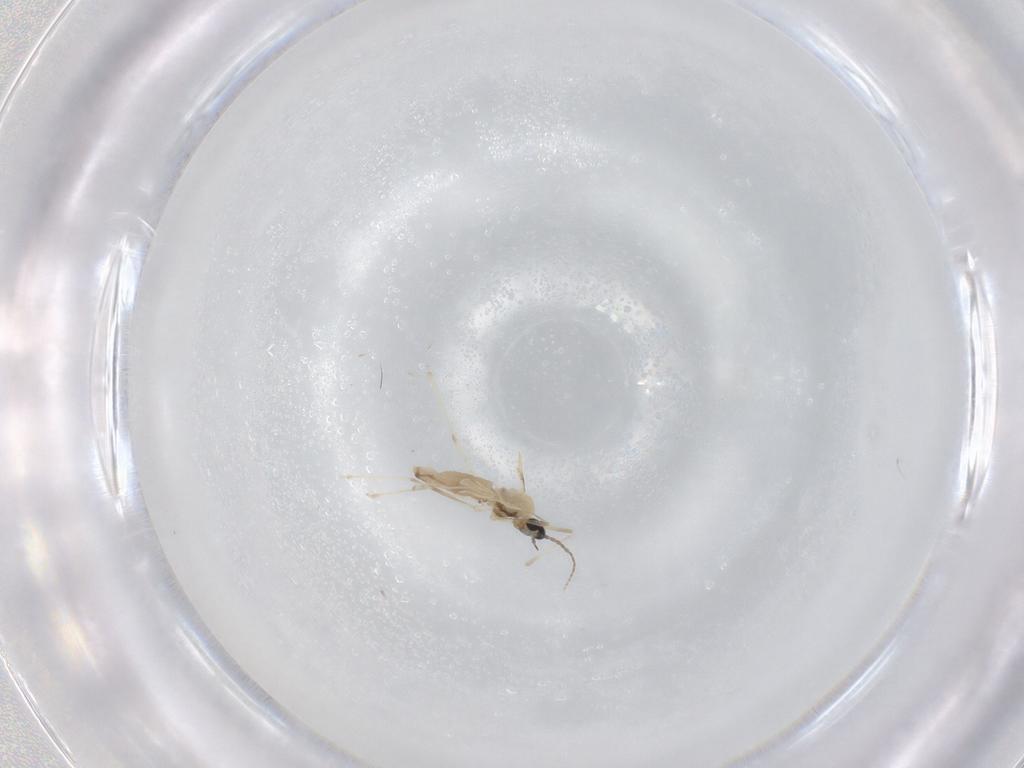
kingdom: Animalia
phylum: Arthropoda
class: Insecta
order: Diptera
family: Cecidomyiidae
